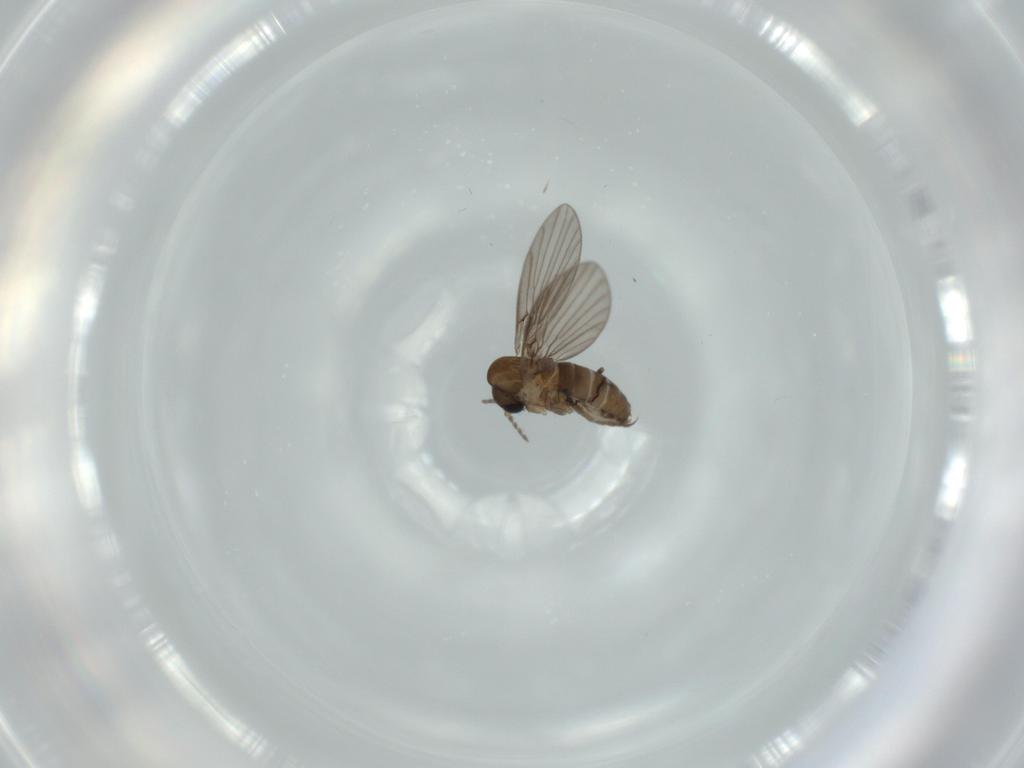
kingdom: Animalia
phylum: Arthropoda
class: Insecta
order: Diptera
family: Psychodidae
